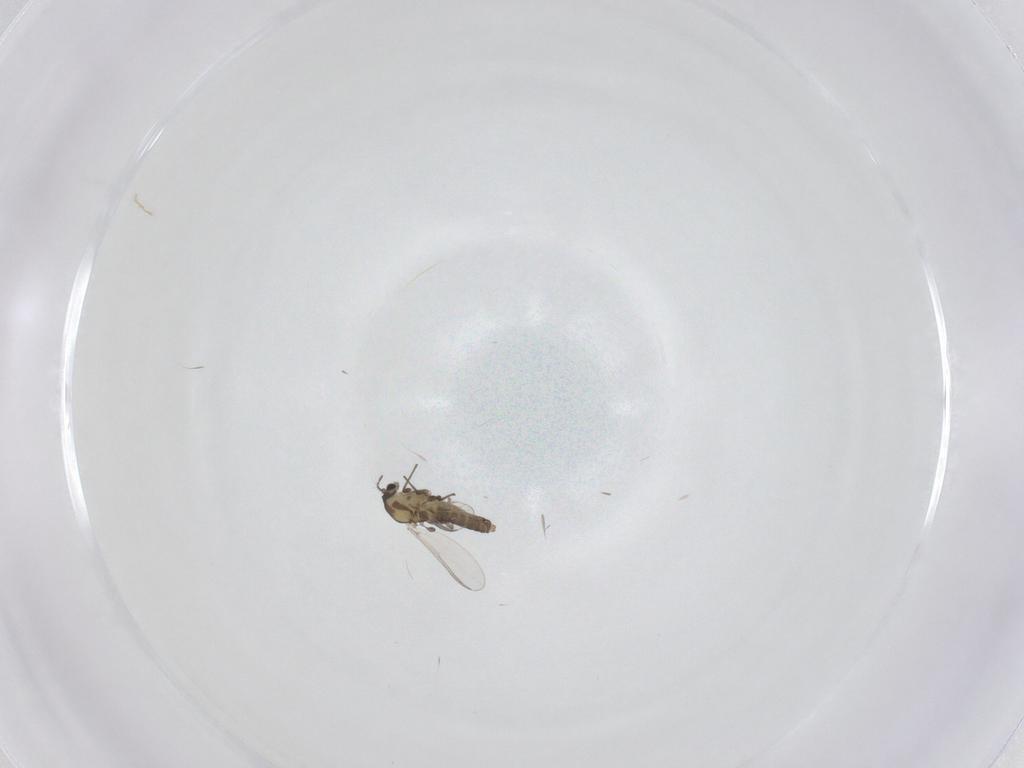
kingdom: Animalia
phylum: Arthropoda
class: Insecta
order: Diptera
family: Chironomidae
